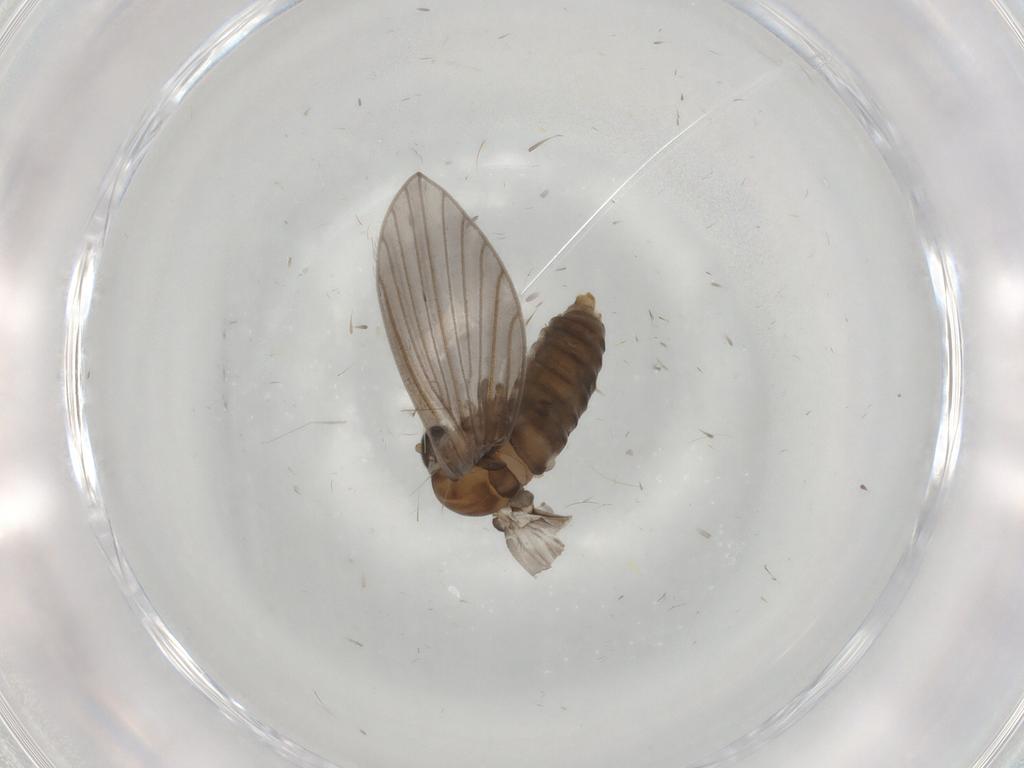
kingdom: Animalia
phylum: Arthropoda
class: Insecta
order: Diptera
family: Psychodidae
